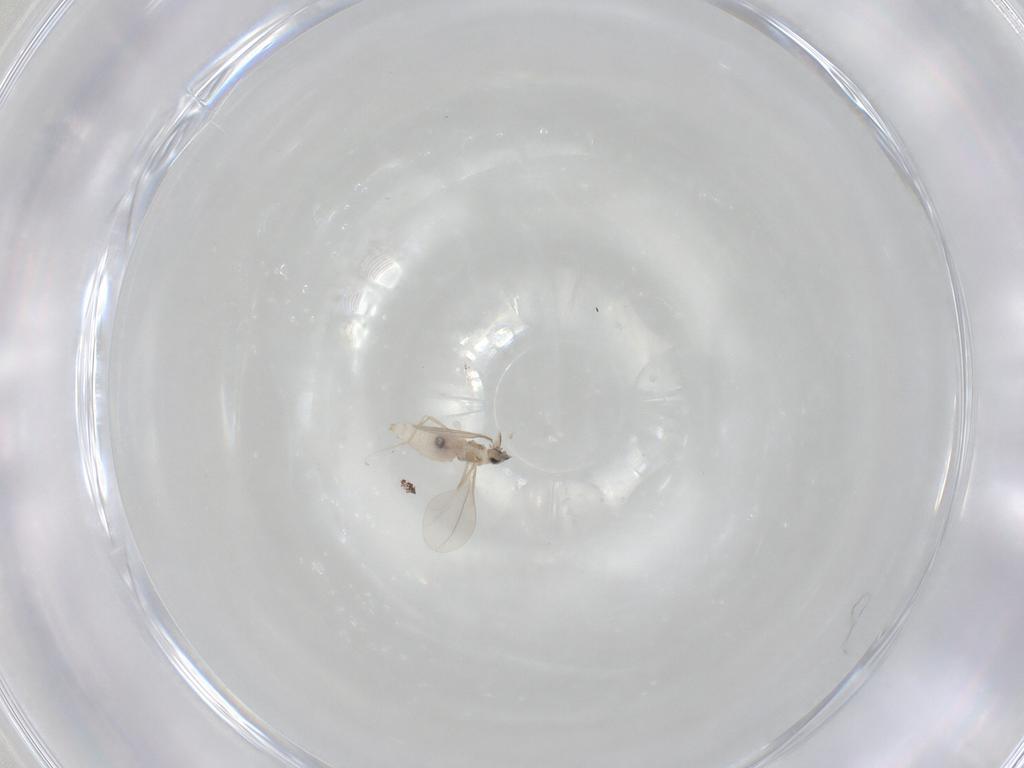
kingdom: Animalia
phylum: Arthropoda
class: Insecta
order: Diptera
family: Cecidomyiidae
